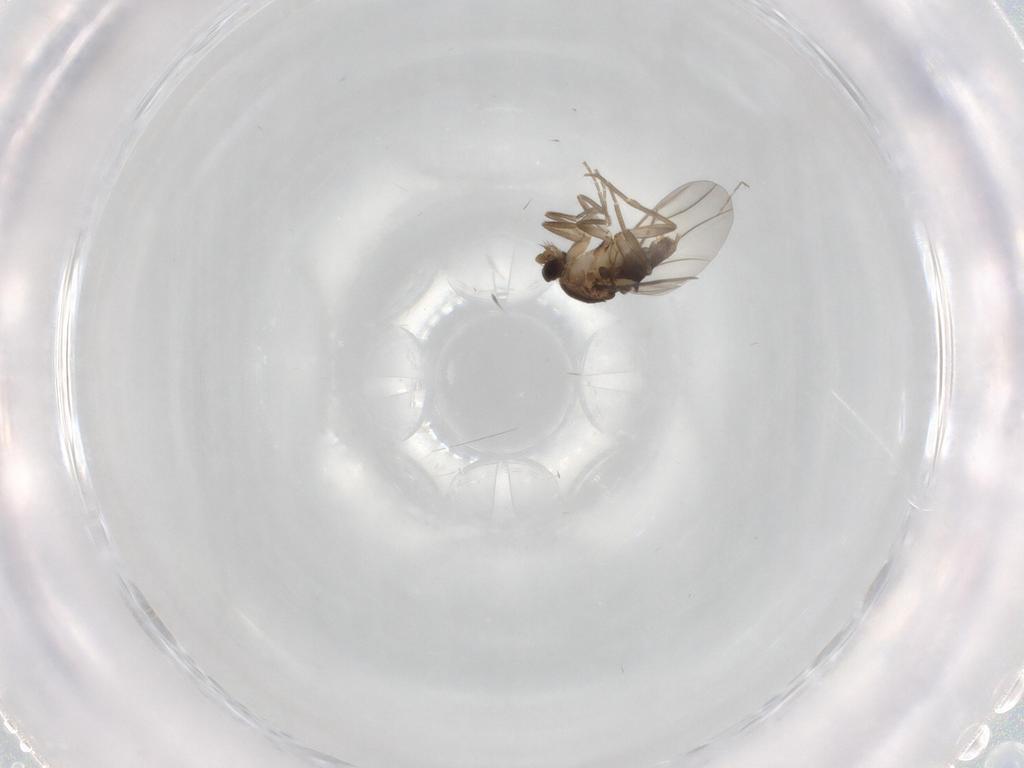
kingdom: Animalia
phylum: Arthropoda
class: Insecta
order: Diptera
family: Phoridae
